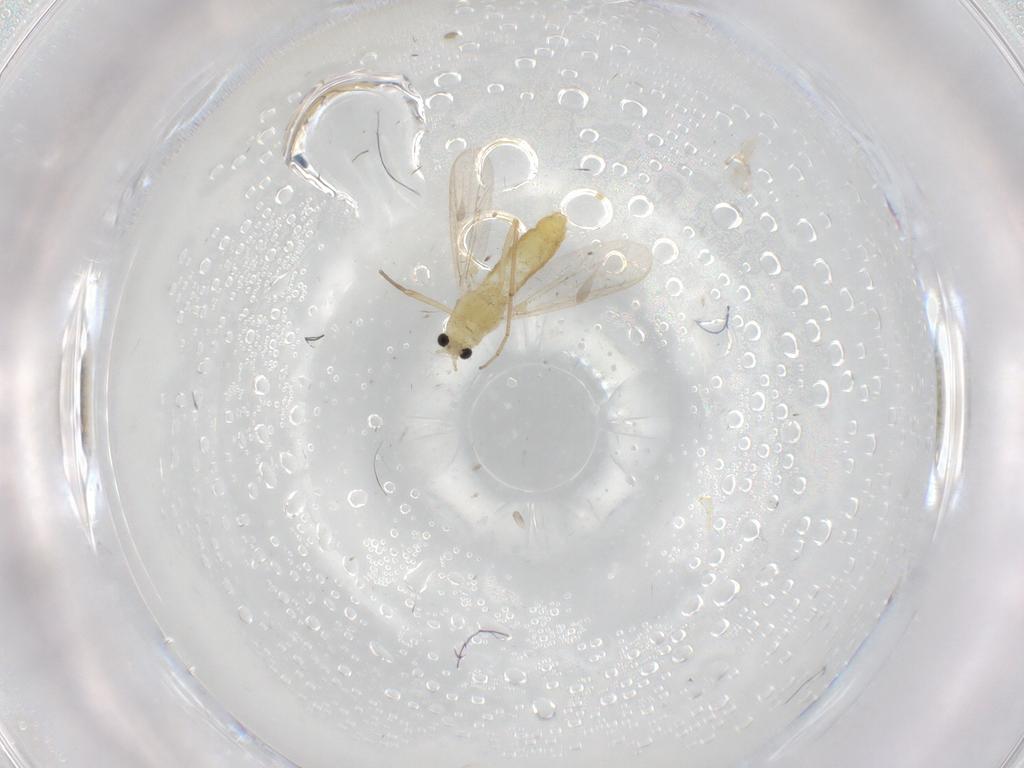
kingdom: Animalia
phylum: Arthropoda
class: Insecta
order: Diptera
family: Chironomidae
